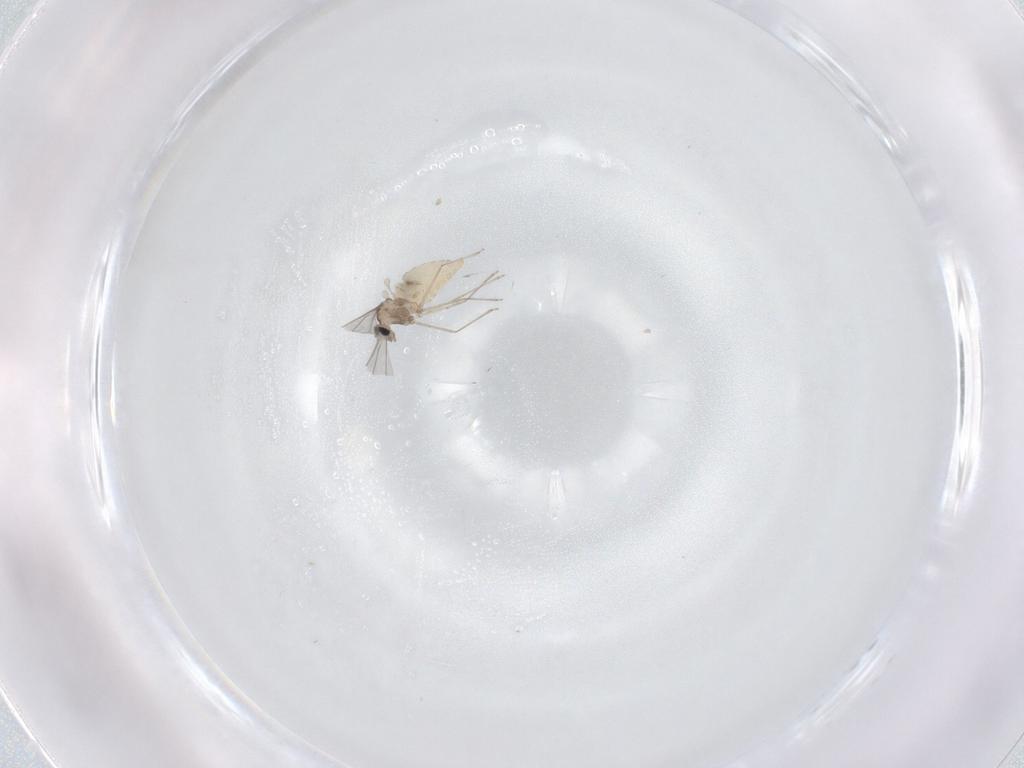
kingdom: Animalia
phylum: Arthropoda
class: Insecta
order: Diptera
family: Cecidomyiidae
